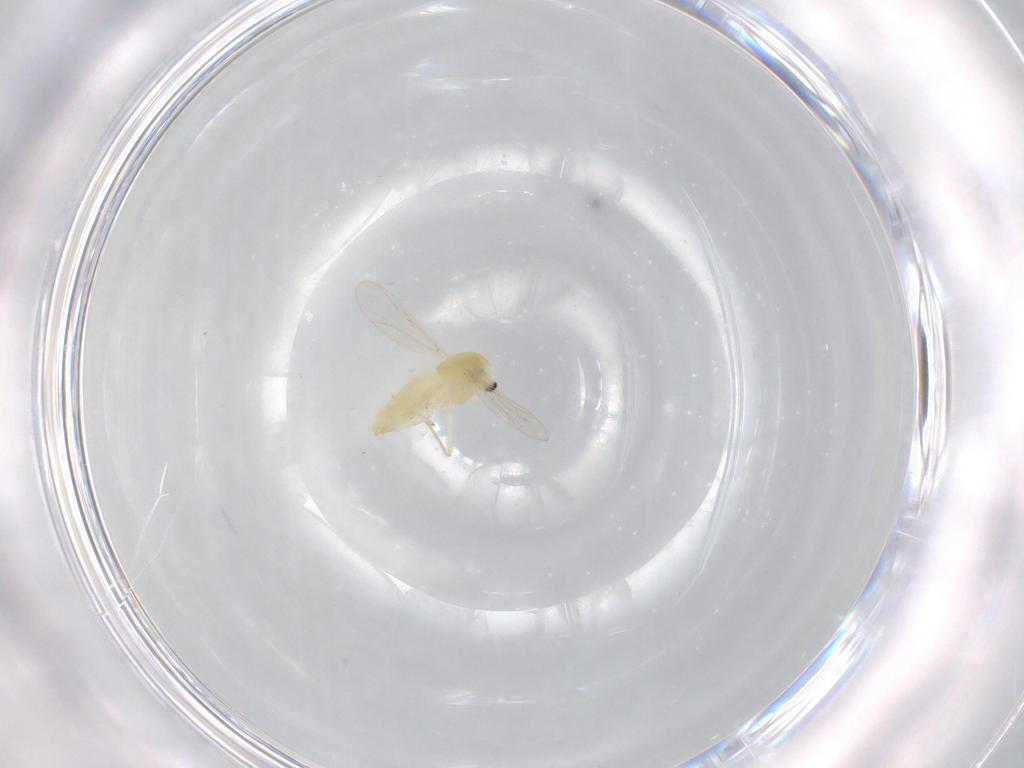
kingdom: Animalia
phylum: Arthropoda
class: Insecta
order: Diptera
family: Chironomidae
